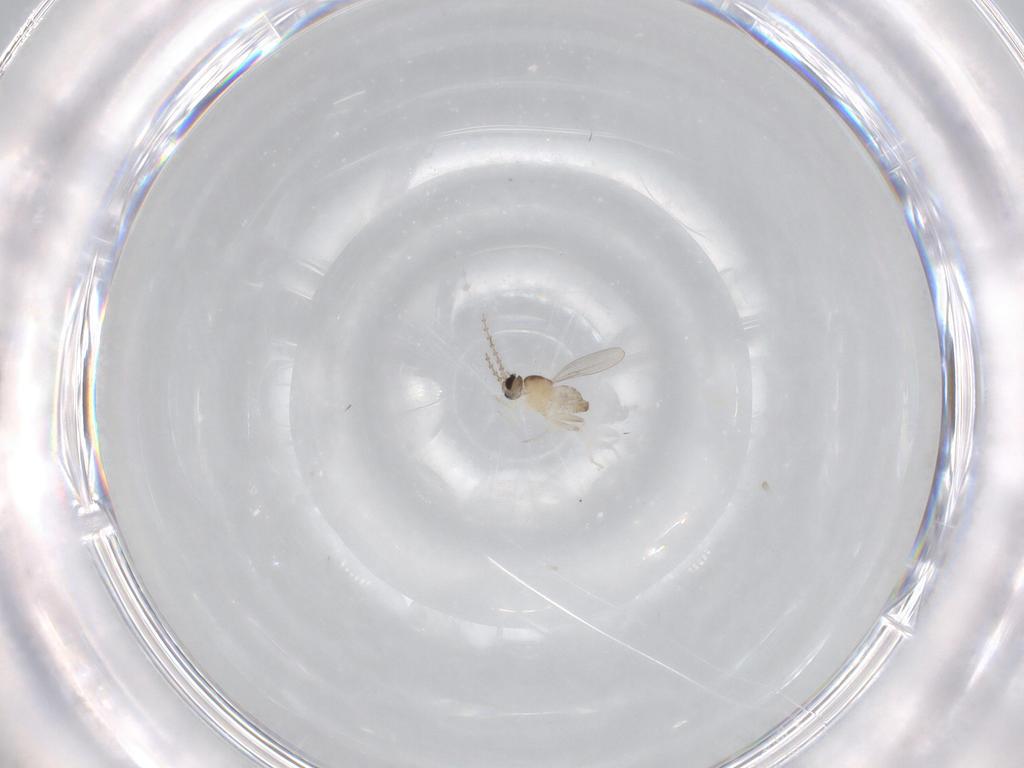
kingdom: Animalia
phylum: Arthropoda
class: Insecta
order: Diptera
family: Cecidomyiidae
